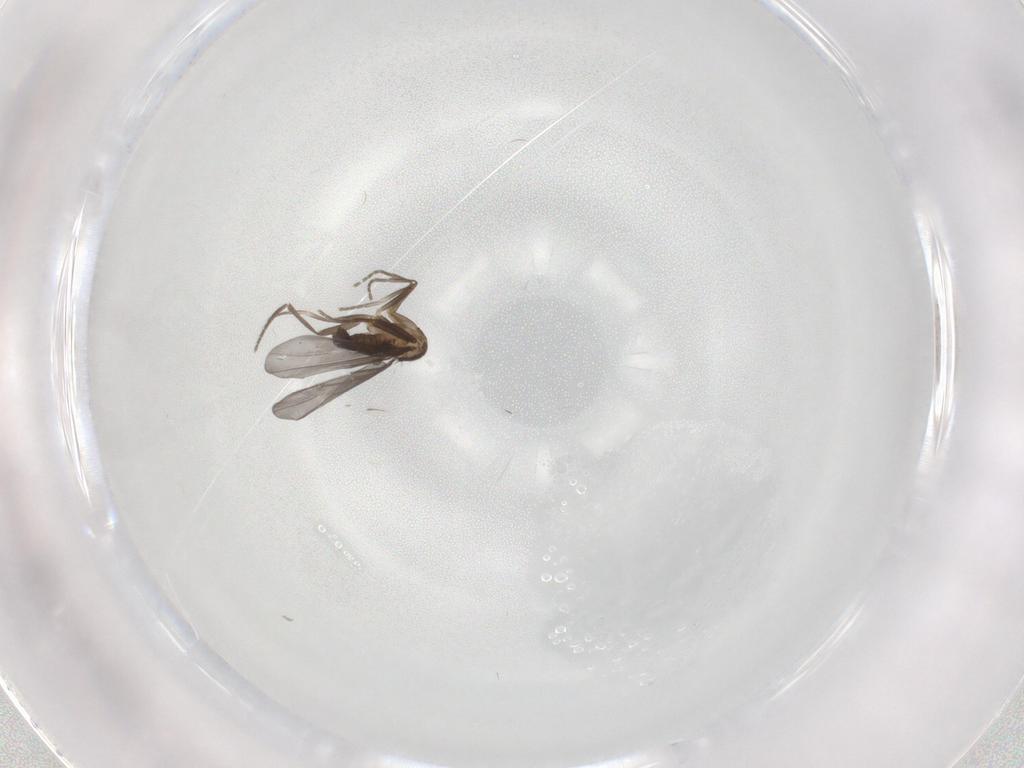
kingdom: Animalia
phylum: Arthropoda
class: Insecta
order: Diptera
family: Phoridae
